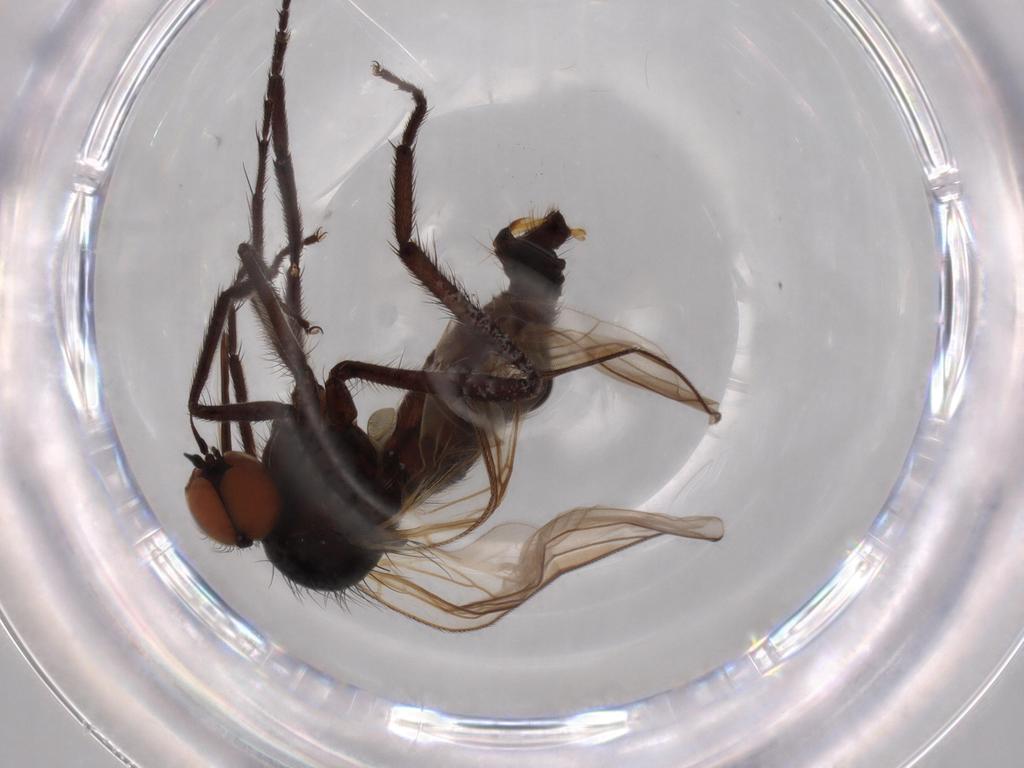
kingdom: Animalia
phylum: Arthropoda
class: Insecta
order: Diptera
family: Empididae
